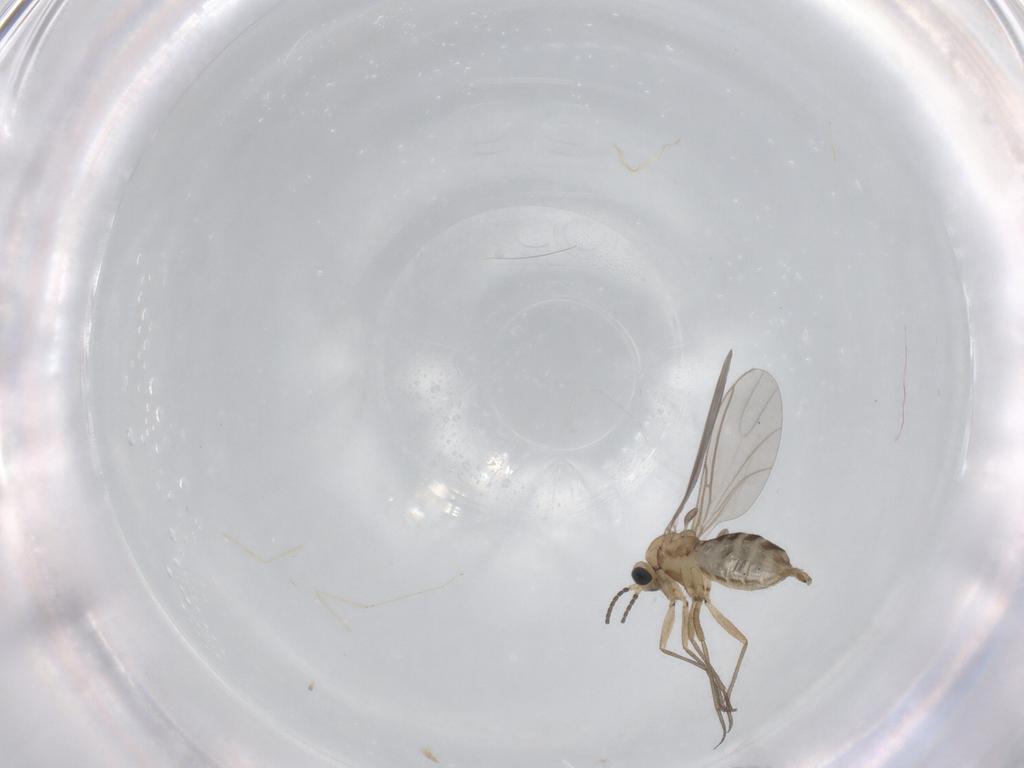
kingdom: Animalia
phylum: Arthropoda
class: Insecta
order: Diptera
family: Sciaridae
